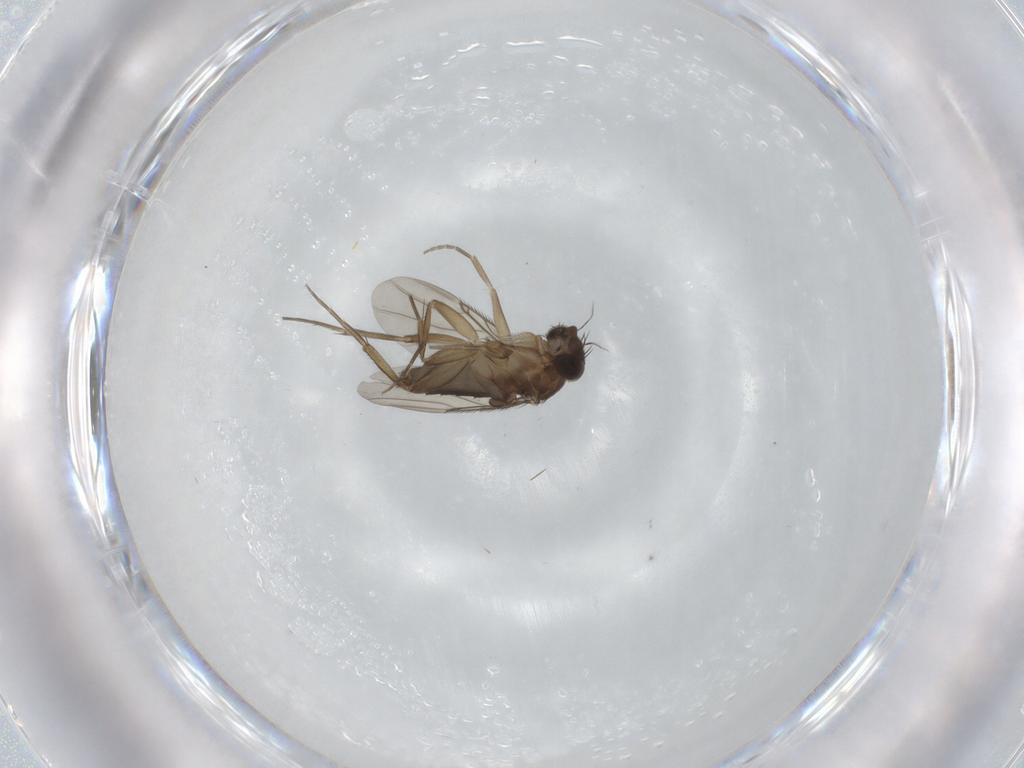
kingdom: Animalia
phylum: Arthropoda
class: Insecta
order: Diptera
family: Phoridae
